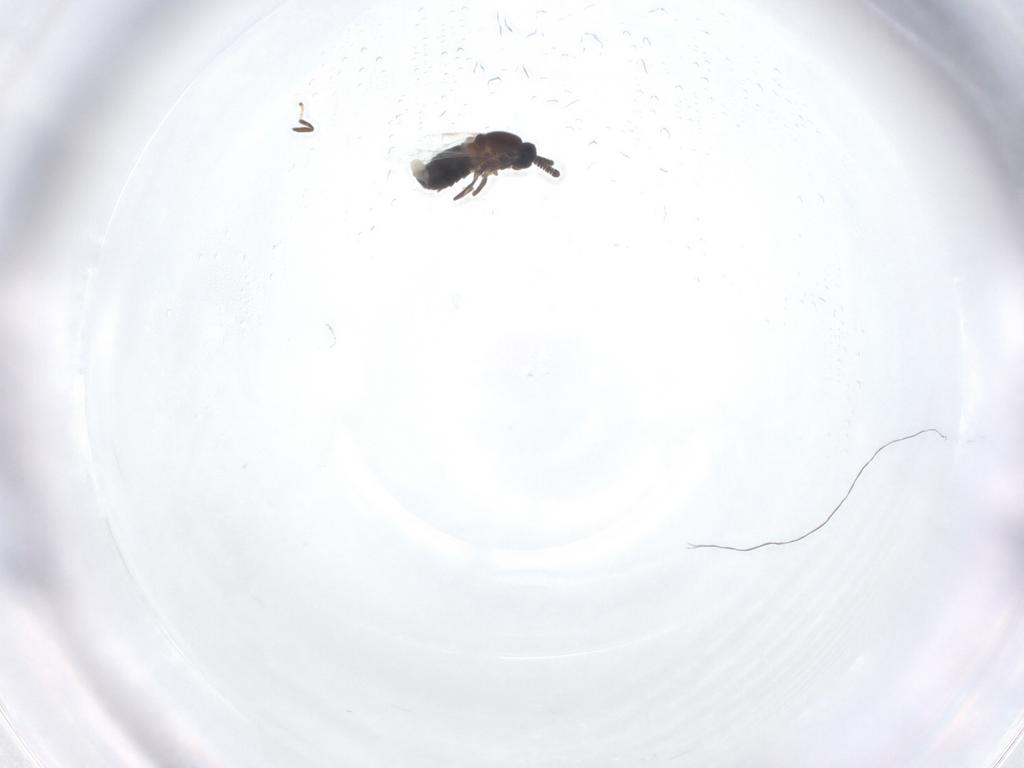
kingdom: Animalia
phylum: Arthropoda
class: Insecta
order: Diptera
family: Scatopsidae
